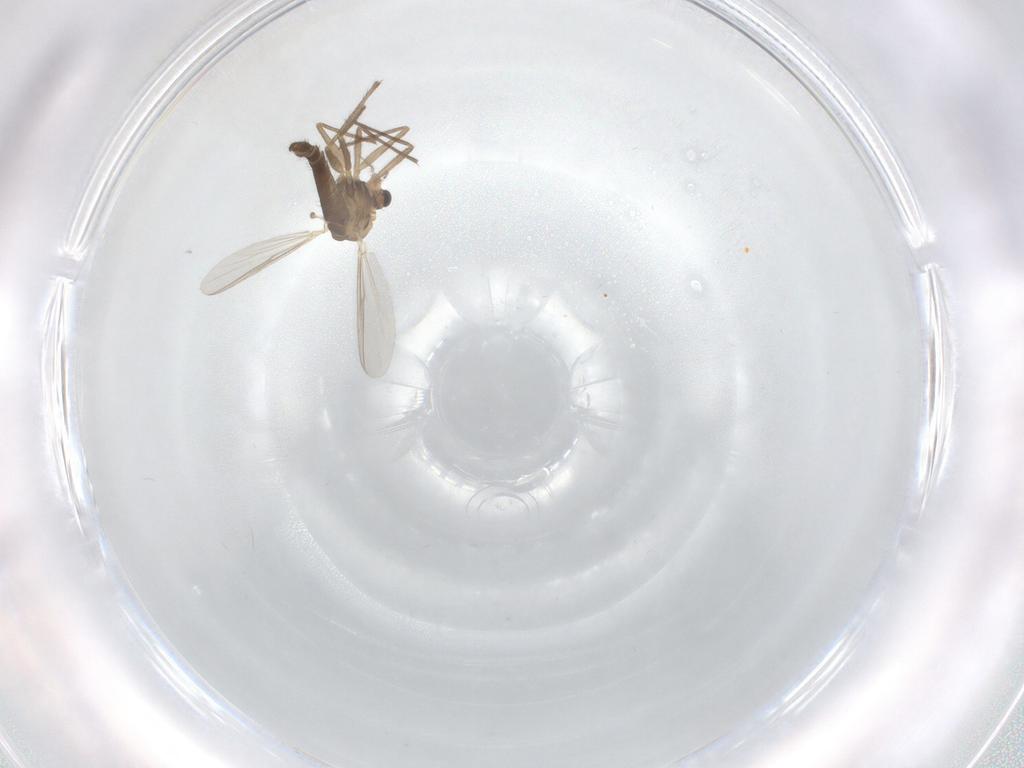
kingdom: Animalia
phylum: Arthropoda
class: Insecta
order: Diptera
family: Chironomidae
